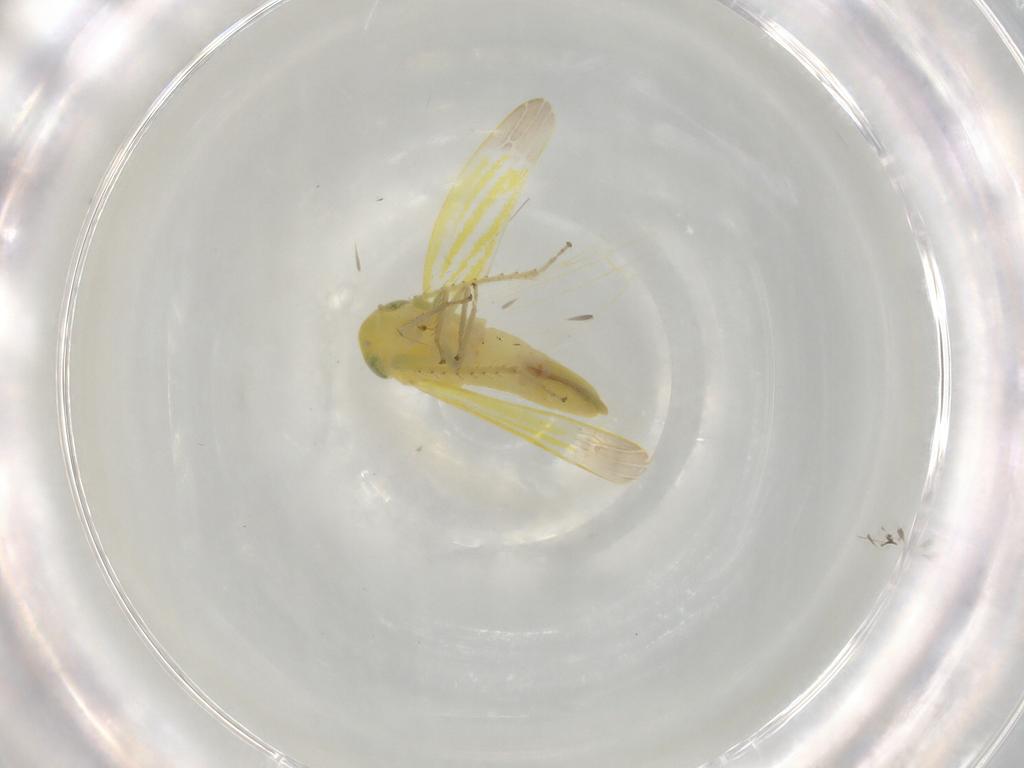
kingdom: Animalia
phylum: Arthropoda
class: Insecta
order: Hemiptera
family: Cicadellidae
